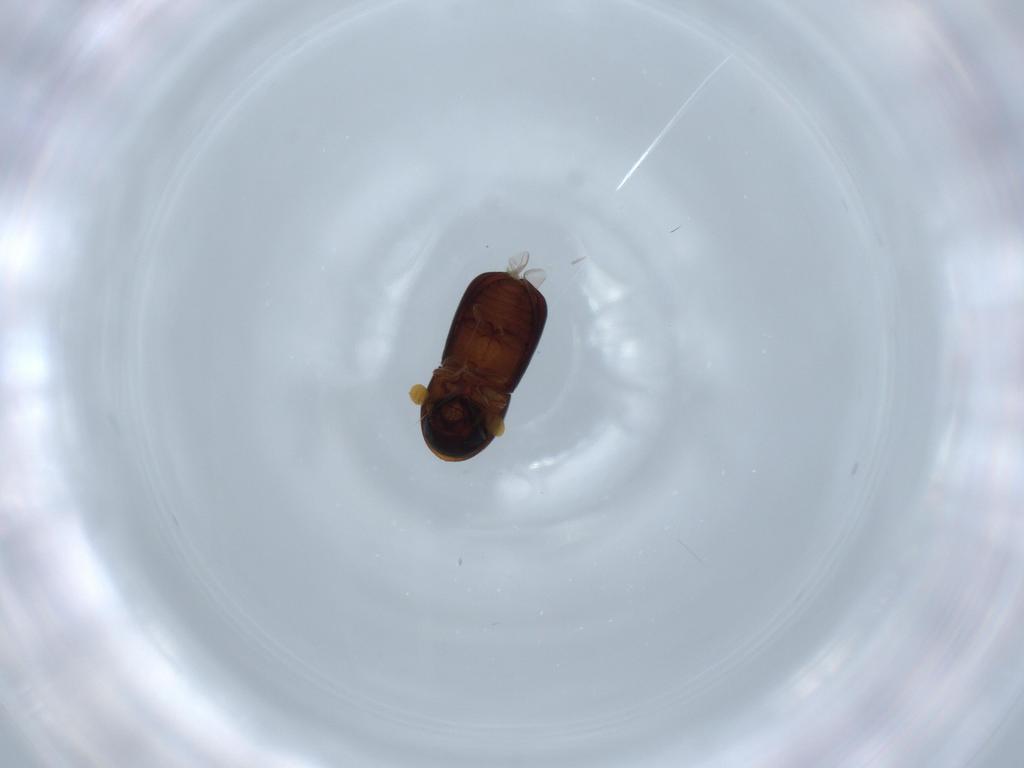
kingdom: Animalia
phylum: Arthropoda
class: Insecta
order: Coleoptera
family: Curculionidae
